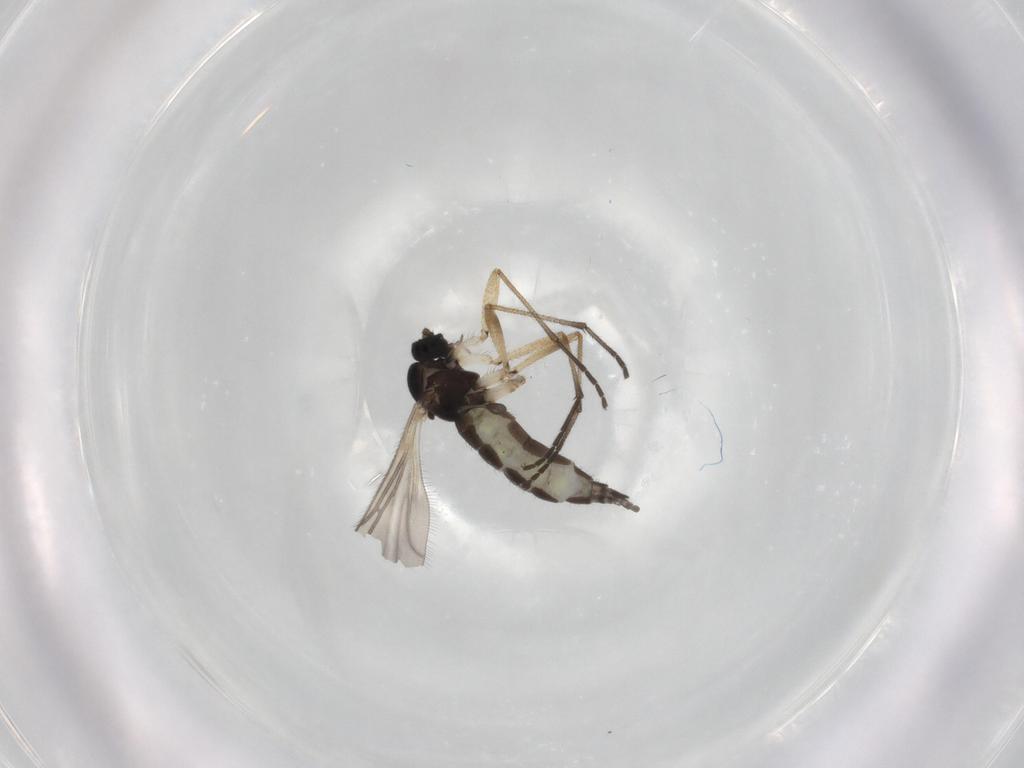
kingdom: Animalia
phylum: Arthropoda
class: Insecta
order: Diptera
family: Sciaridae
